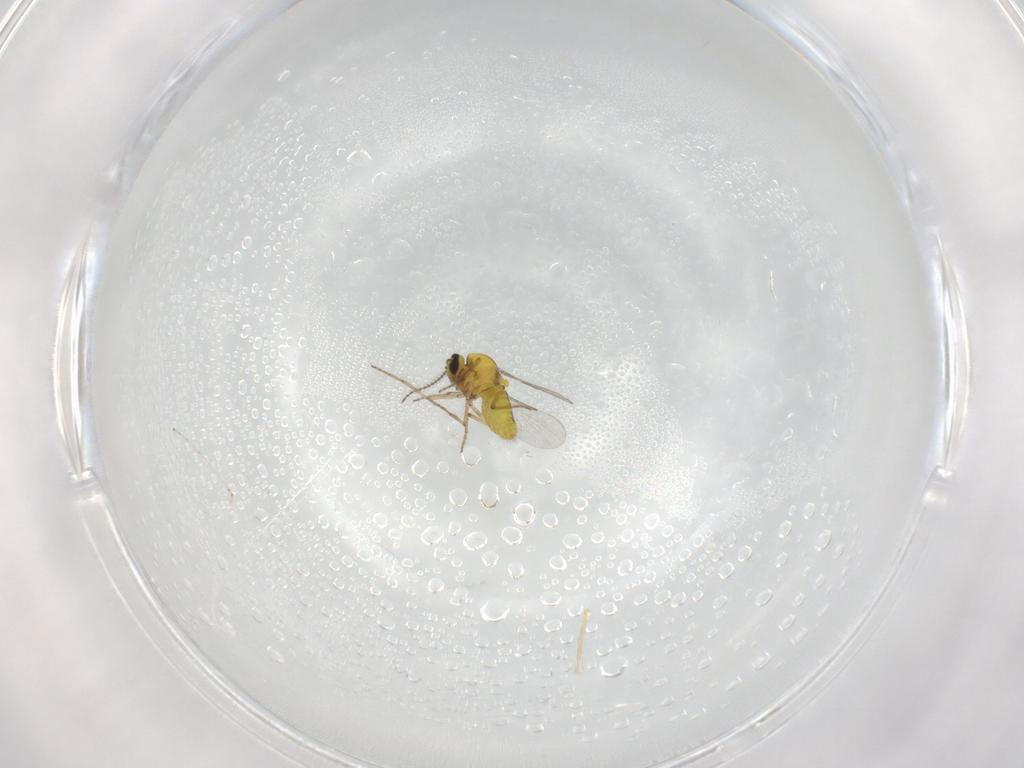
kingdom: Animalia
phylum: Arthropoda
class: Insecta
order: Diptera
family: Cecidomyiidae
